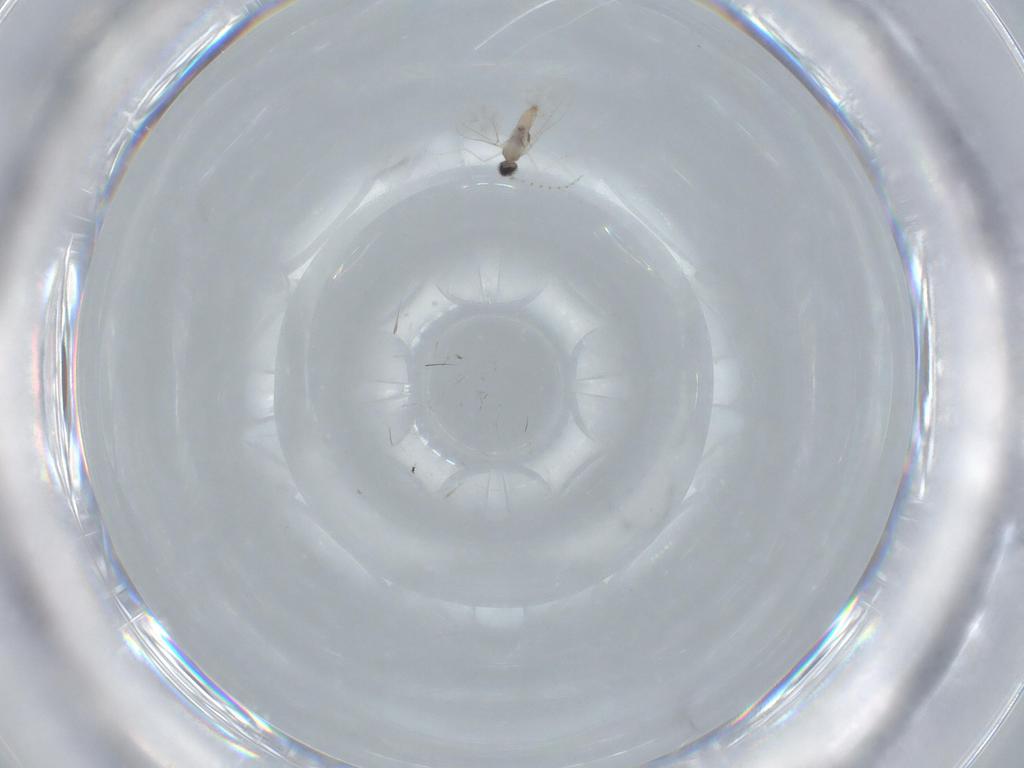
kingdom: Animalia
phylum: Arthropoda
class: Insecta
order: Diptera
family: Cecidomyiidae
